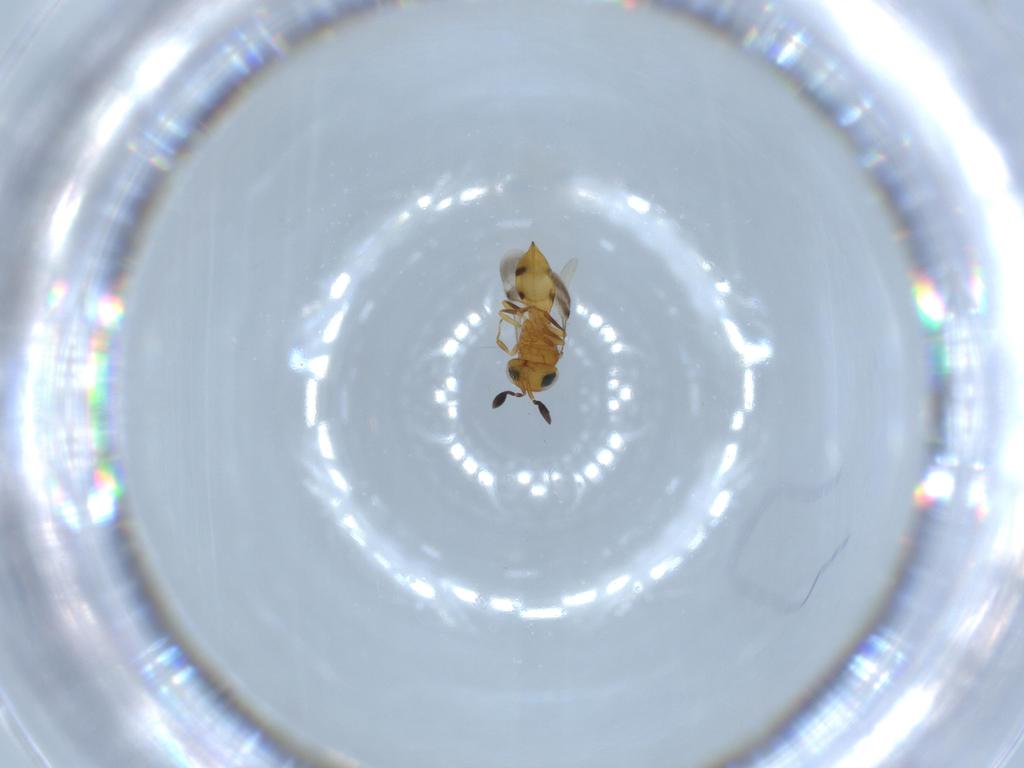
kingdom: Animalia
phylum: Arthropoda
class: Insecta
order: Hymenoptera
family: Scelionidae
